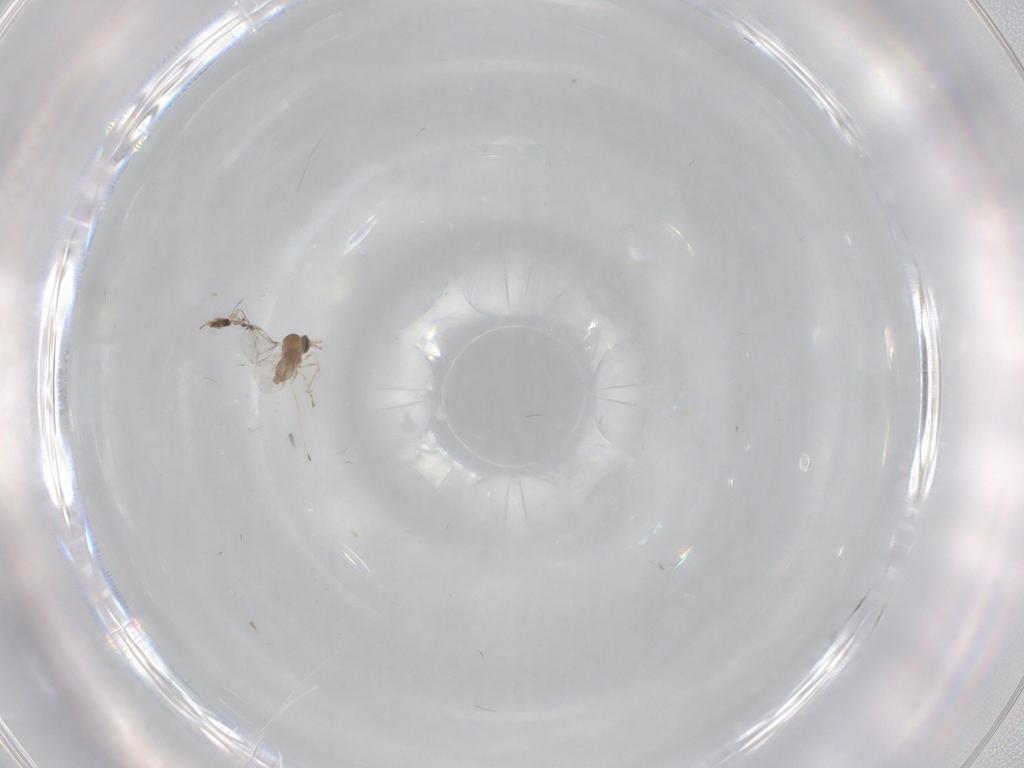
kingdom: Animalia
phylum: Arthropoda
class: Insecta
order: Diptera
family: Cecidomyiidae
